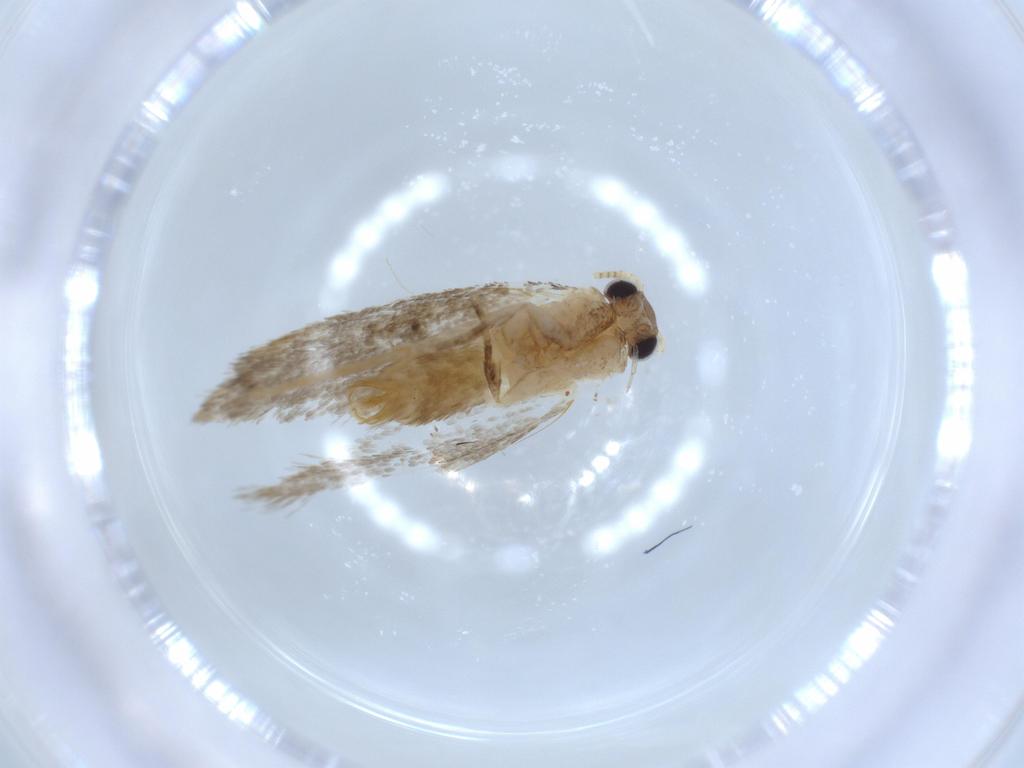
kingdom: Animalia
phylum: Arthropoda
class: Insecta
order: Lepidoptera
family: Tineidae
